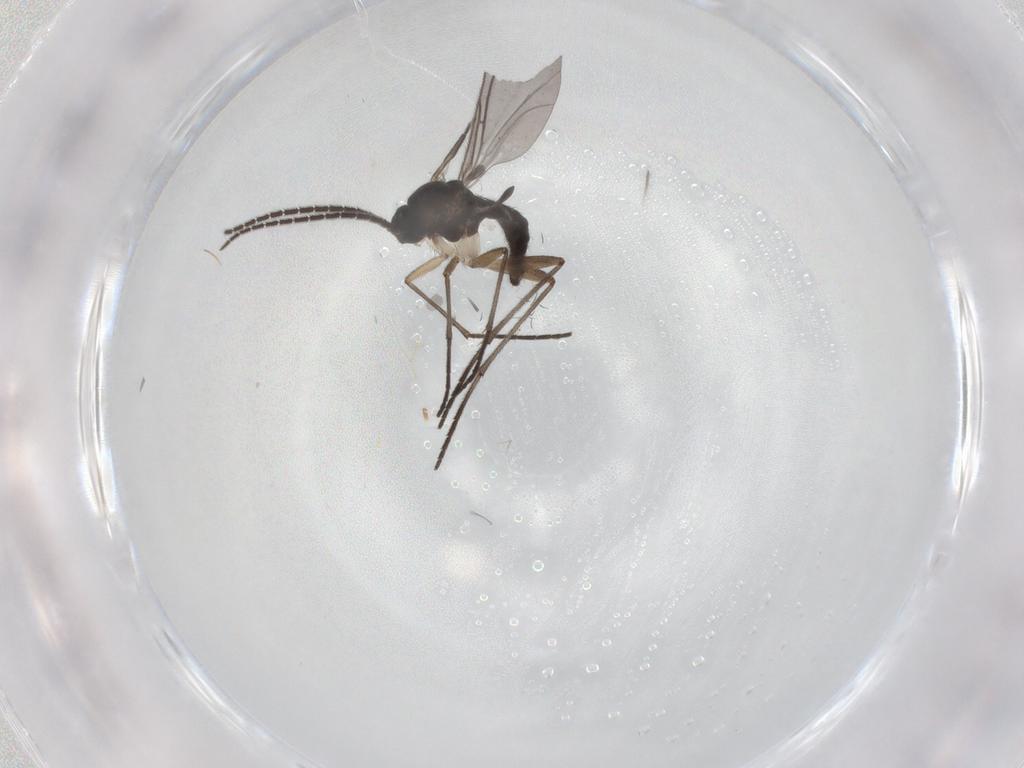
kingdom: Animalia
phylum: Arthropoda
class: Insecta
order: Diptera
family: Sciaridae
